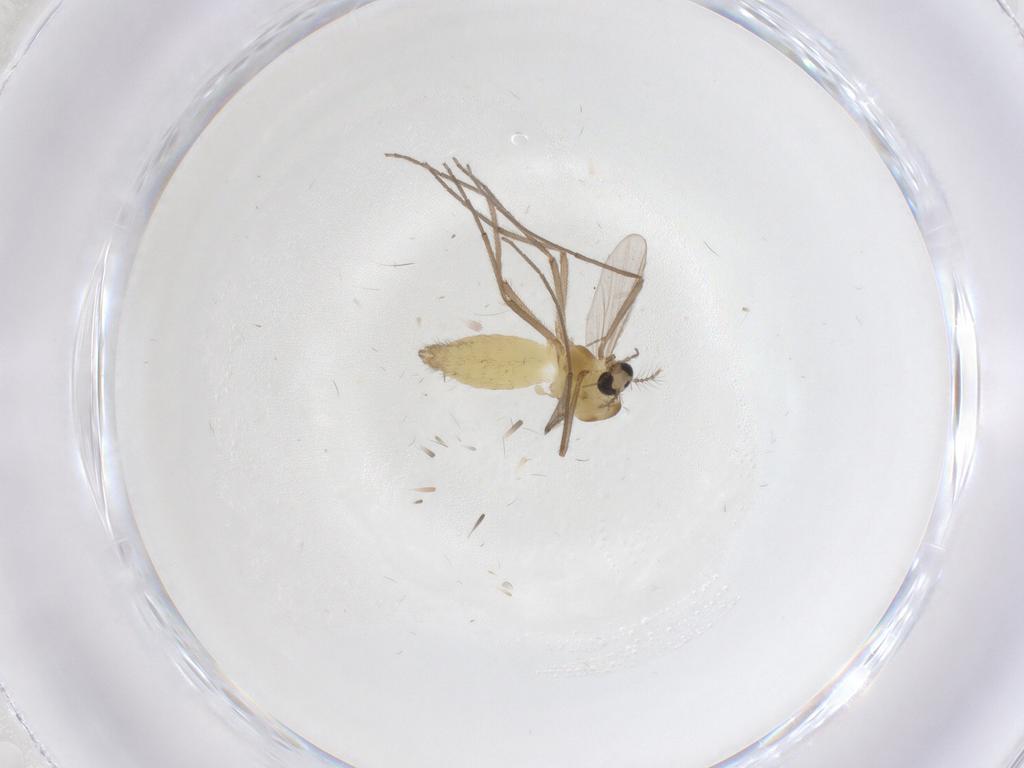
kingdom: Animalia
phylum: Arthropoda
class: Insecta
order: Diptera
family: Chironomidae
